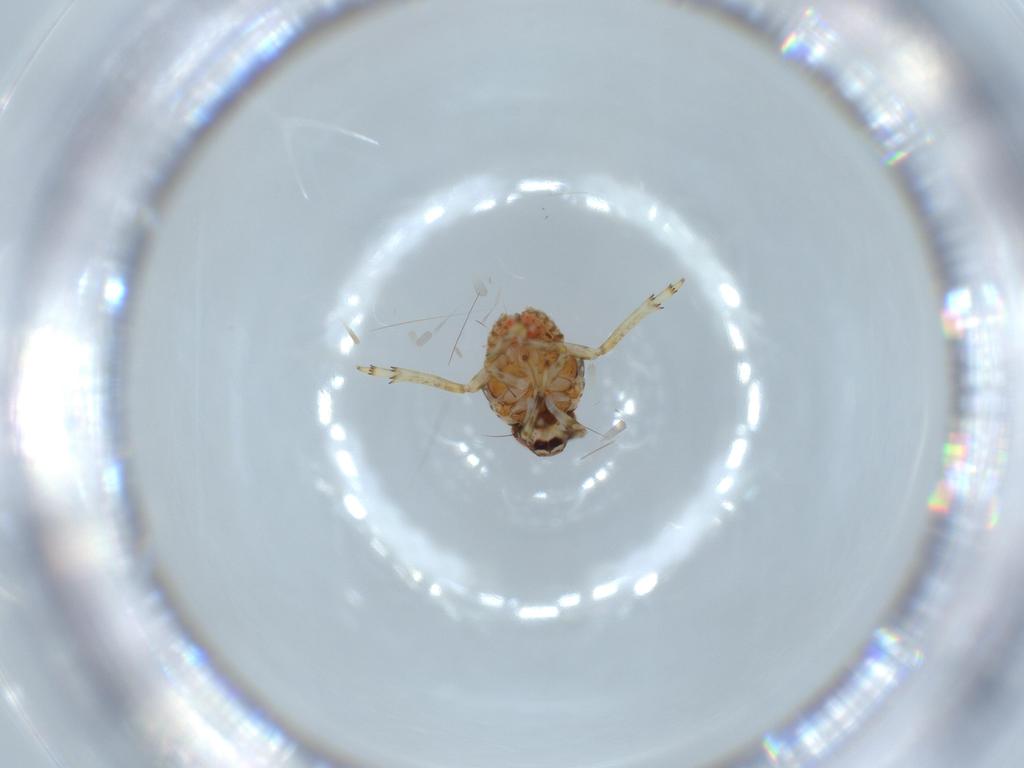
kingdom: Animalia
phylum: Arthropoda
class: Insecta
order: Hemiptera
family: Issidae
